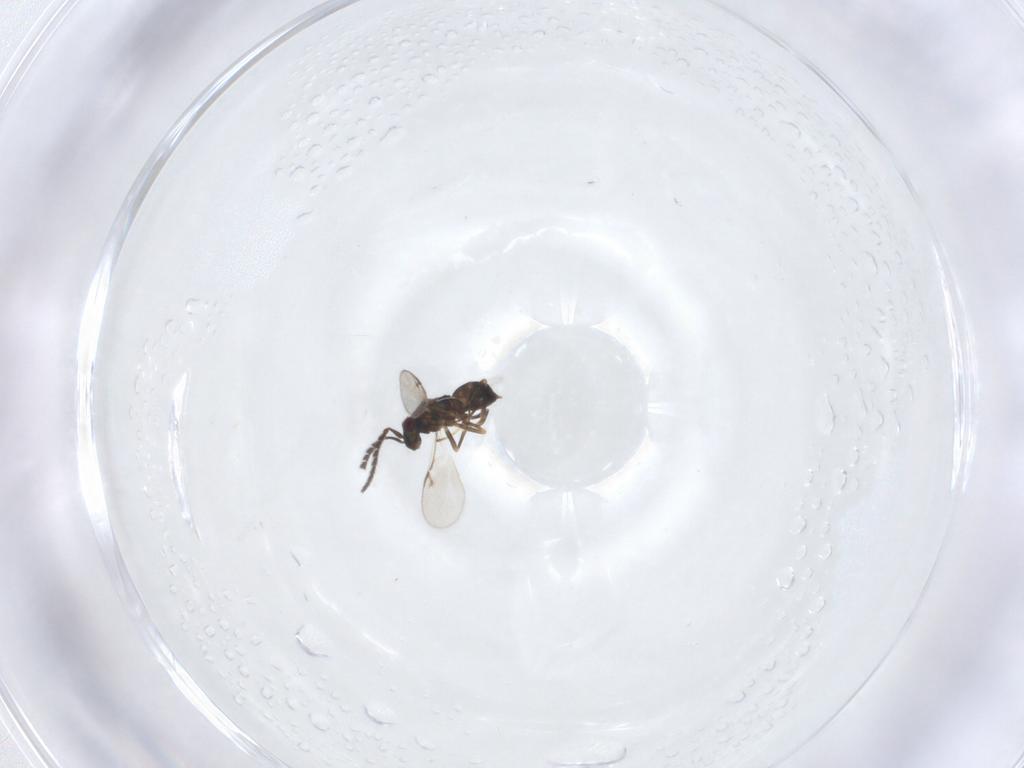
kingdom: Animalia
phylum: Arthropoda
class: Insecta
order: Hymenoptera
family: Encyrtidae
